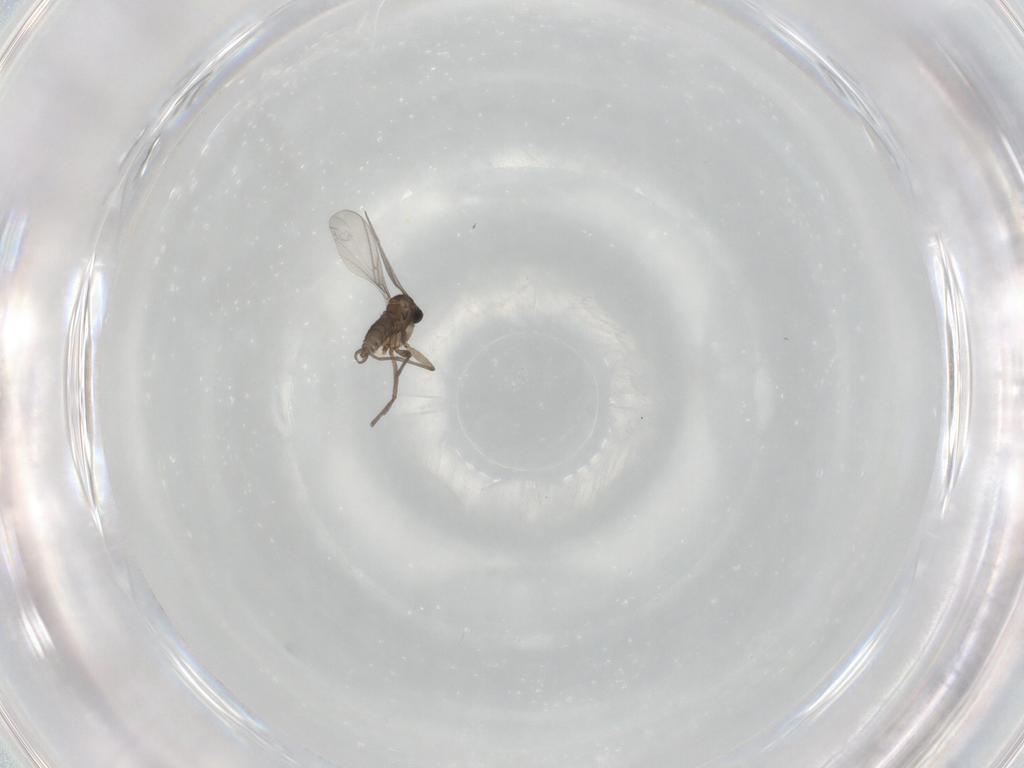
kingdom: Animalia
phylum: Arthropoda
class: Insecta
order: Diptera
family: Sciaridae
